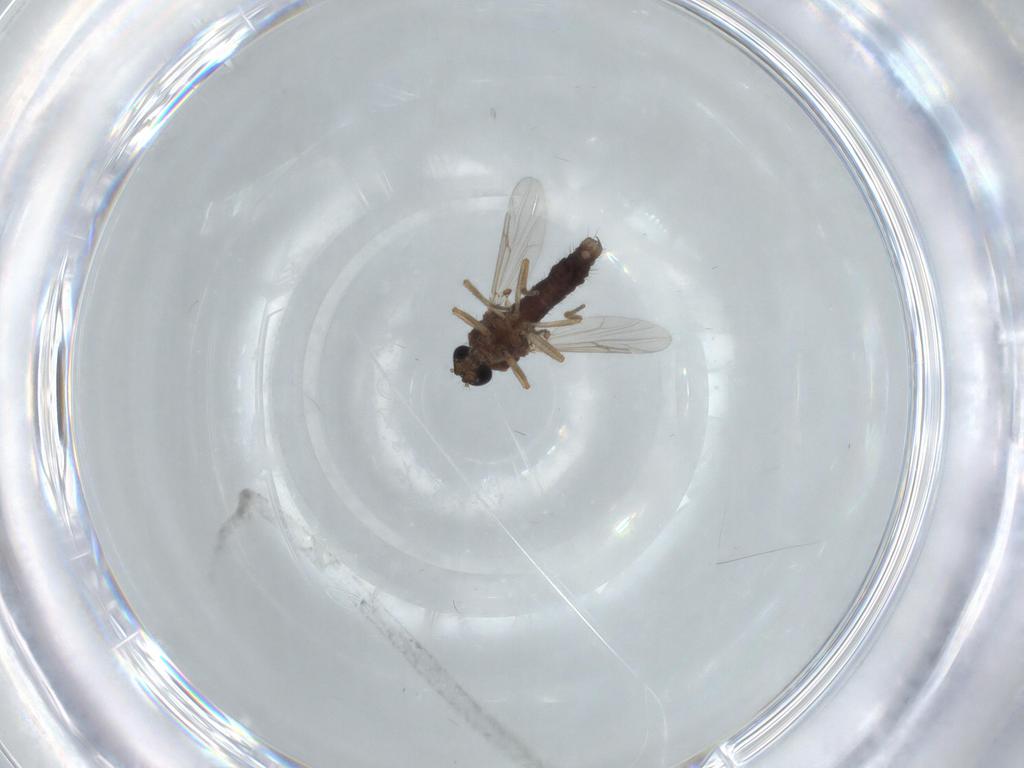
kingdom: Animalia
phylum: Arthropoda
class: Insecta
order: Diptera
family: Ceratopogonidae
